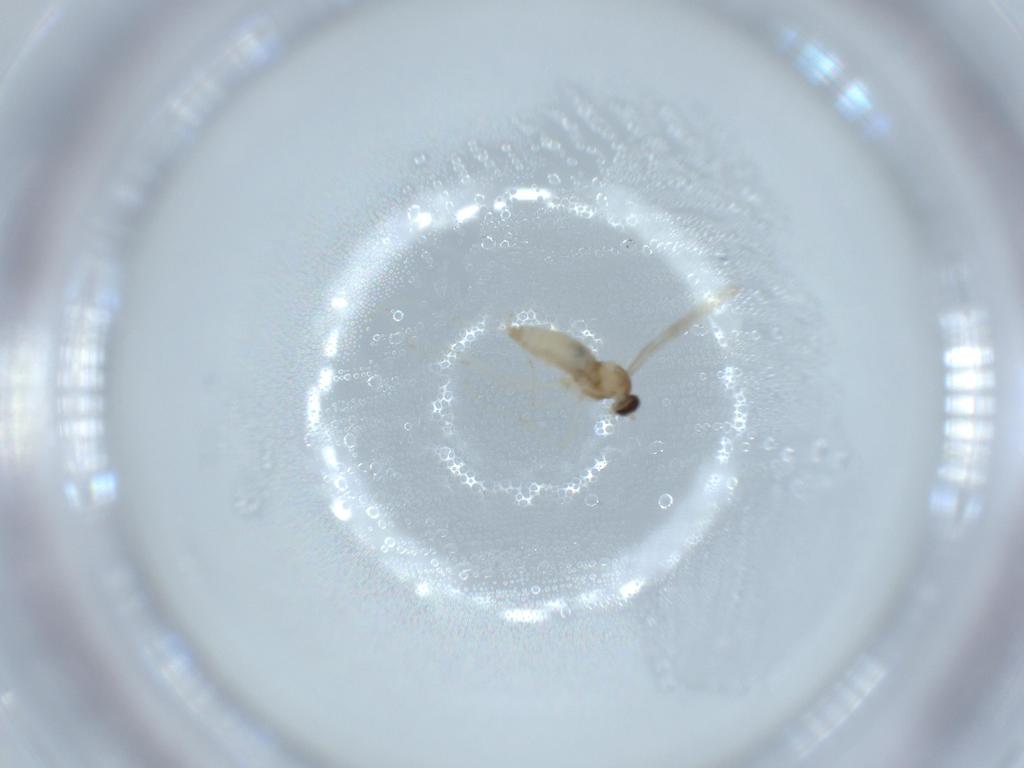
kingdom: Animalia
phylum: Arthropoda
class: Insecta
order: Diptera
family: Cecidomyiidae
